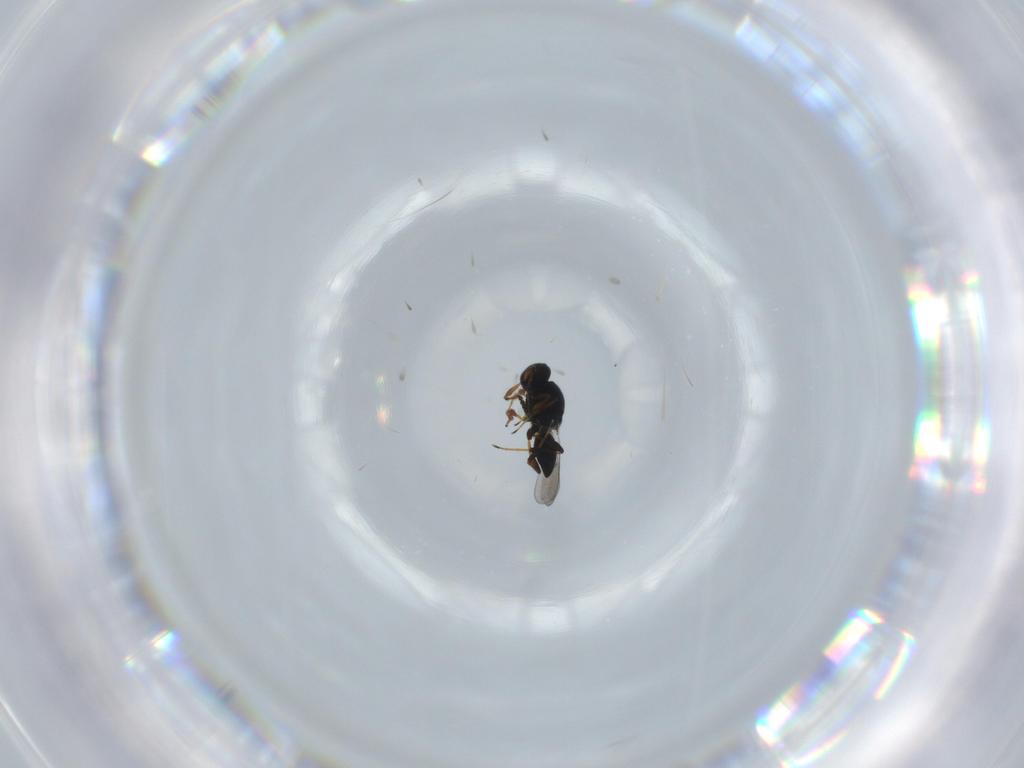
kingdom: Animalia
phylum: Arthropoda
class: Insecta
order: Hymenoptera
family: Platygastridae
